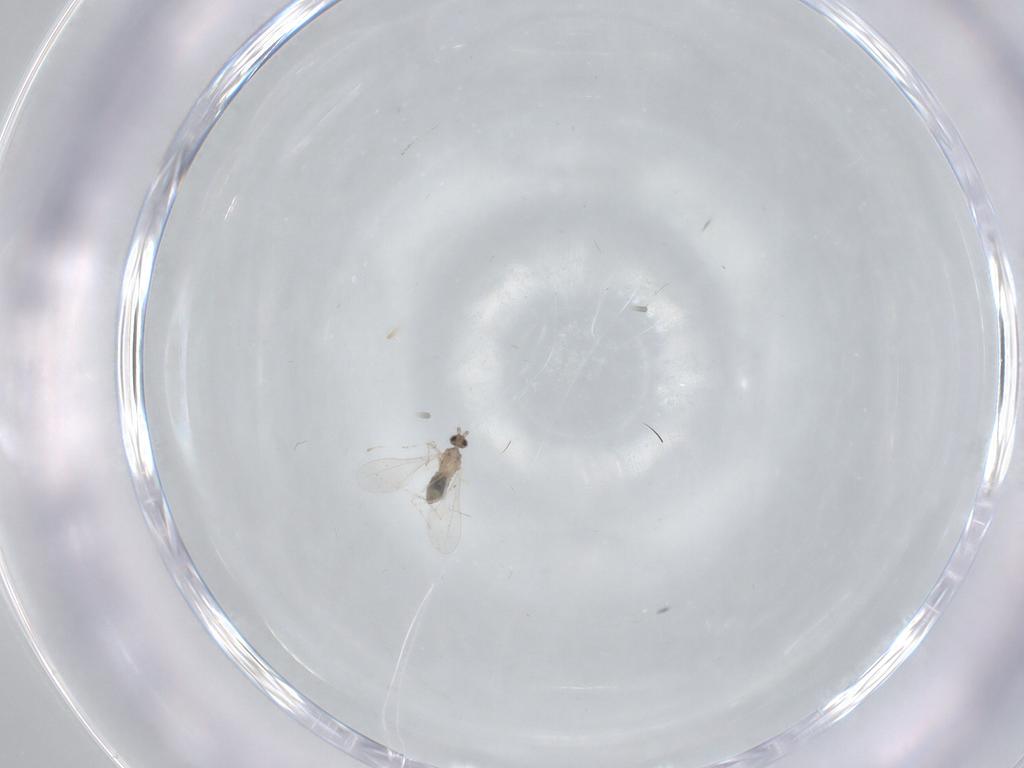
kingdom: Animalia
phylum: Arthropoda
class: Insecta
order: Diptera
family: Cecidomyiidae
